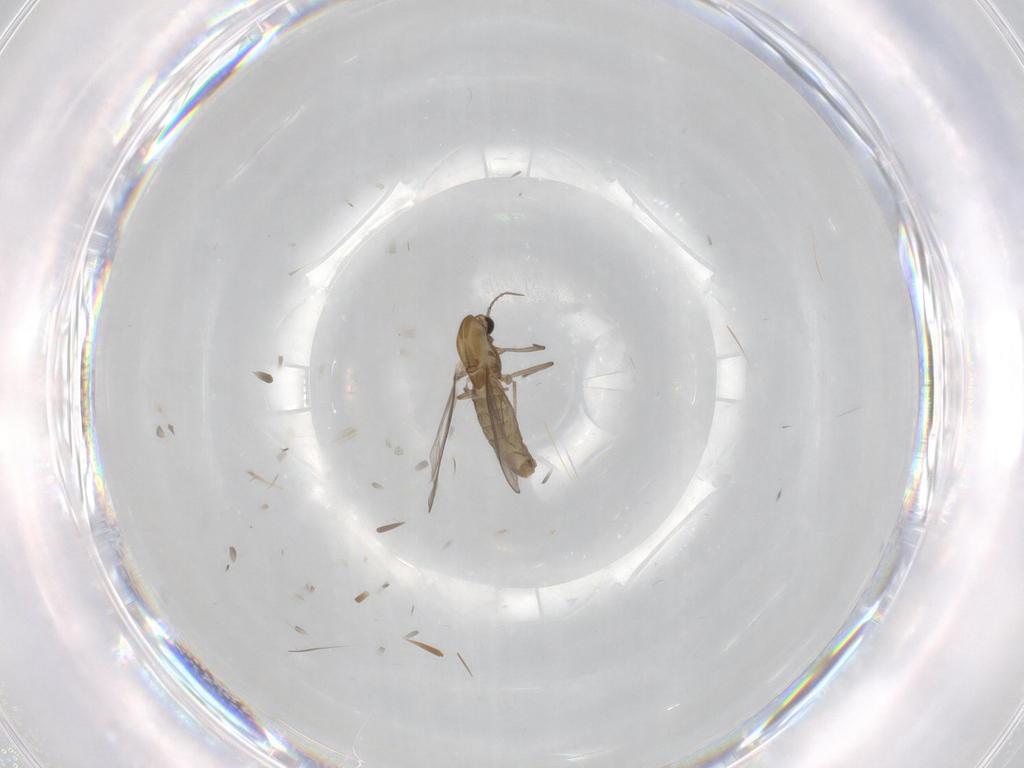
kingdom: Animalia
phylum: Arthropoda
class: Insecta
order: Diptera
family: Chironomidae
